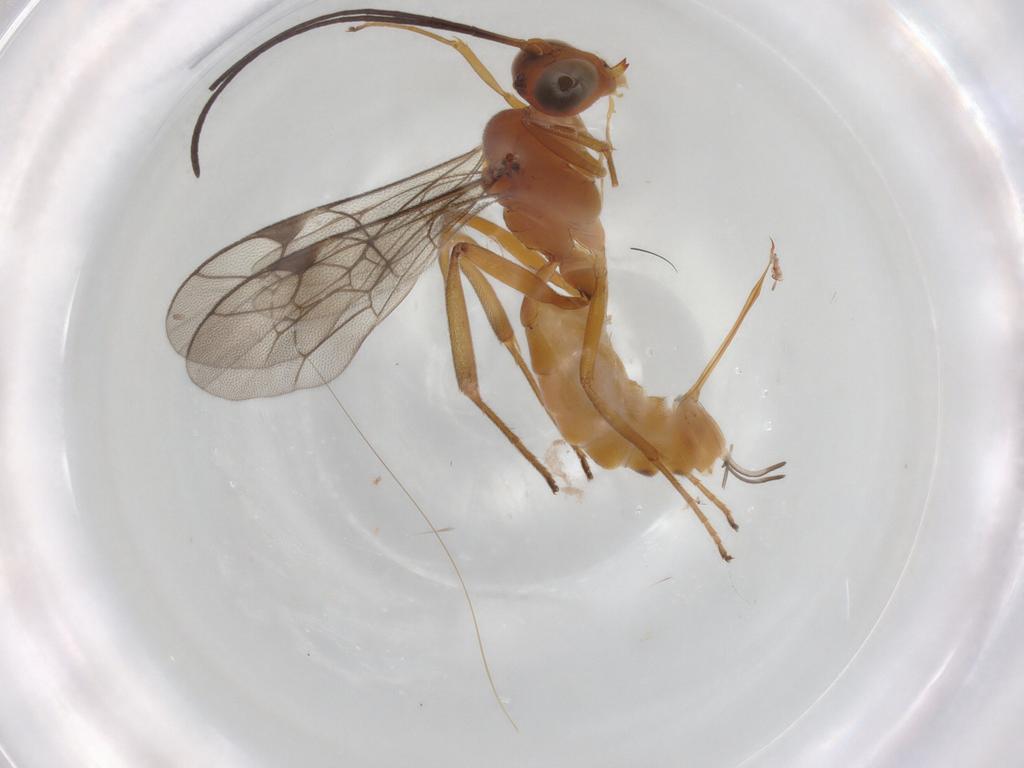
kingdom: Animalia
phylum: Arthropoda
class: Insecta
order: Hymenoptera
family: Ichneumonidae
